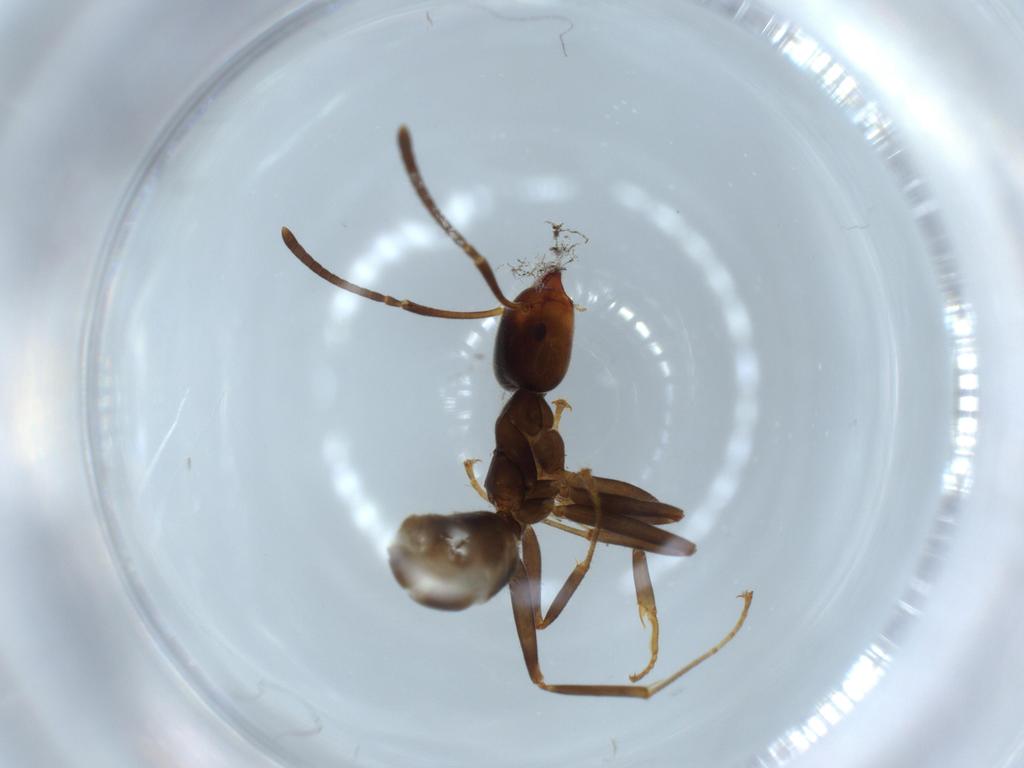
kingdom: Animalia
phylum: Arthropoda
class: Insecta
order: Hymenoptera
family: Formicidae
